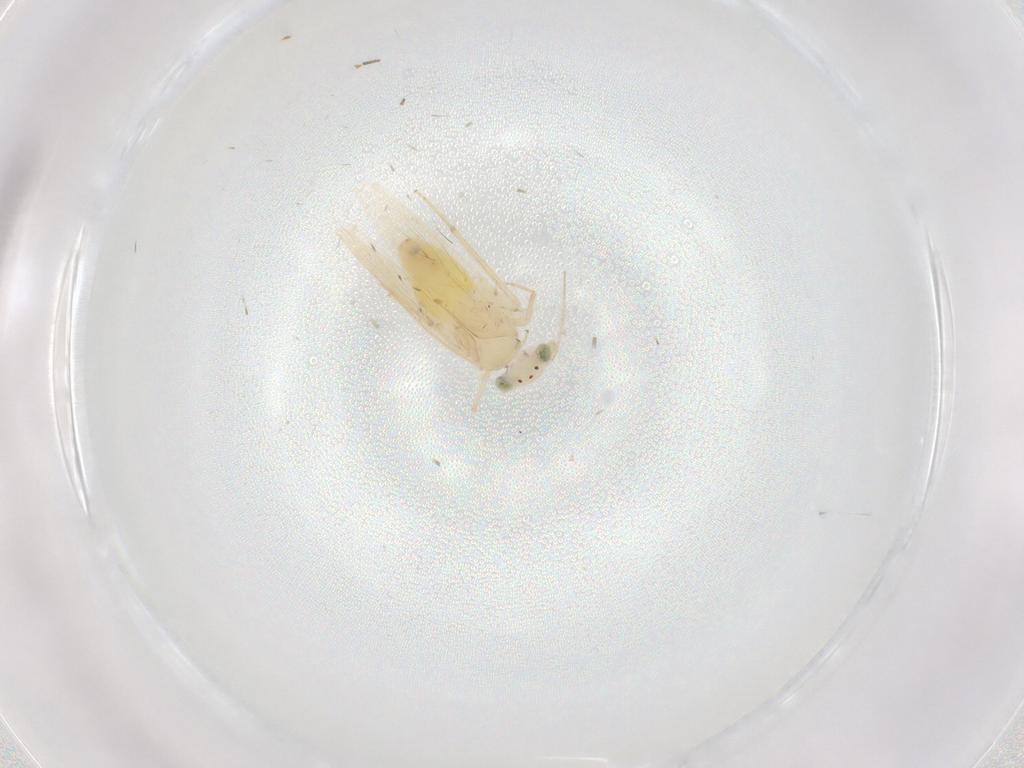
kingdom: Animalia
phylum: Arthropoda
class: Insecta
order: Psocodea
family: Lepidopsocidae
